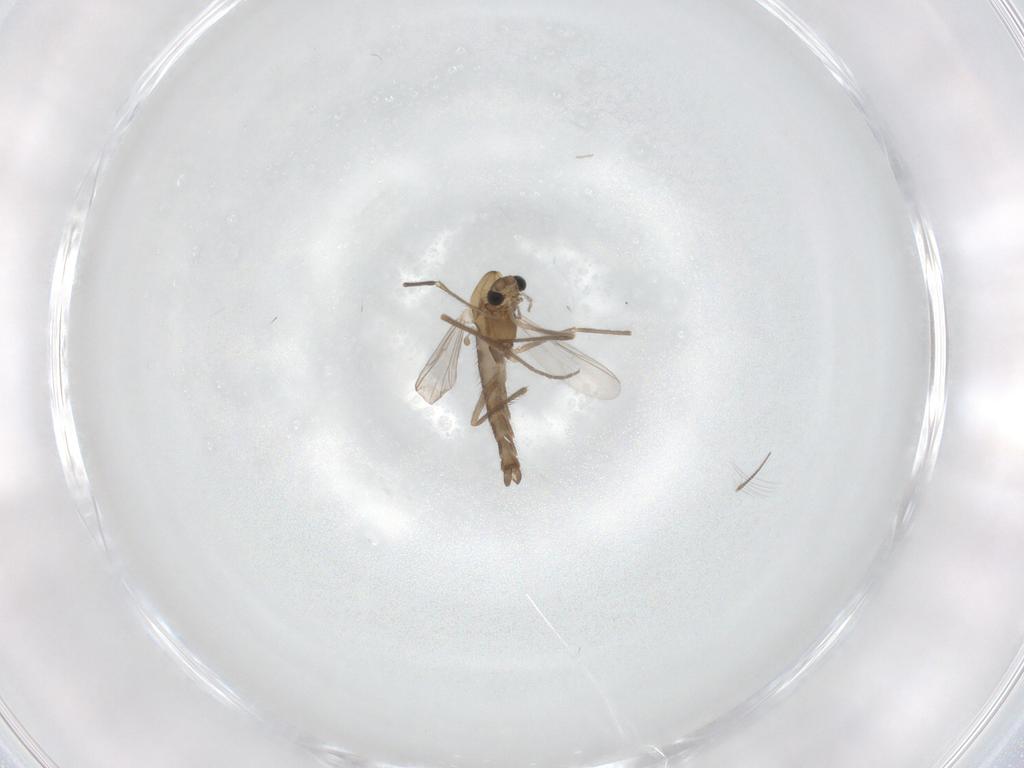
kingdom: Animalia
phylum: Arthropoda
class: Insecta
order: Diptera
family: Chironomidae
